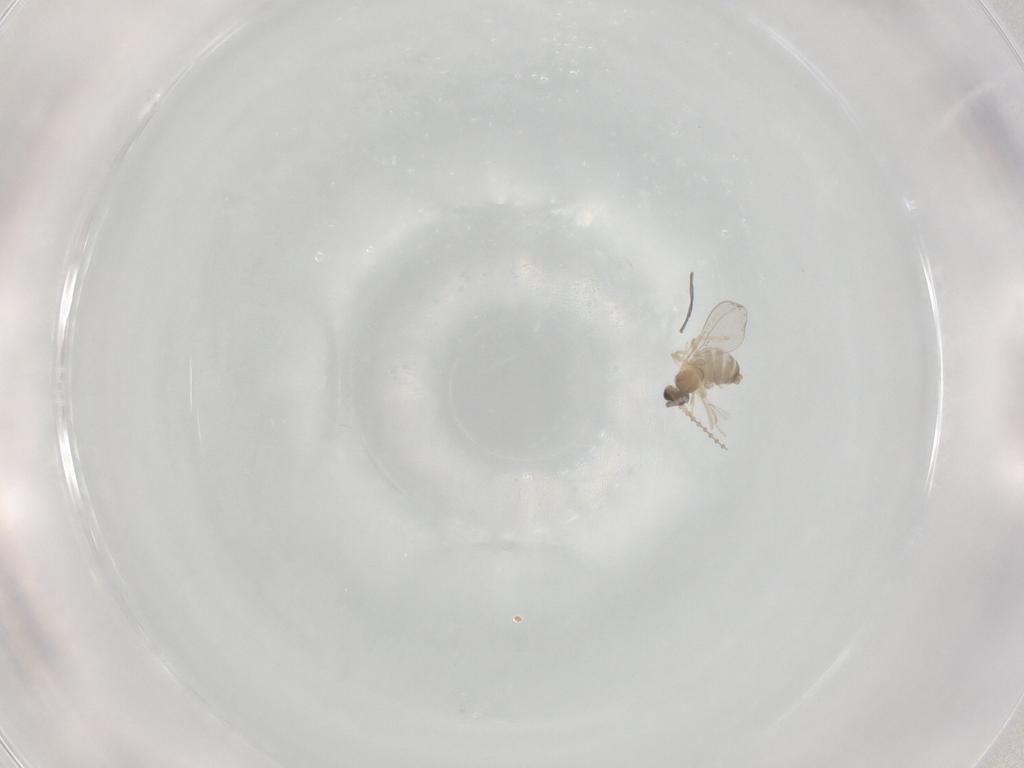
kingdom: Animalia
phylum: Arthropoda
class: Insecta
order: Diptera
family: Cecidomyiidae
